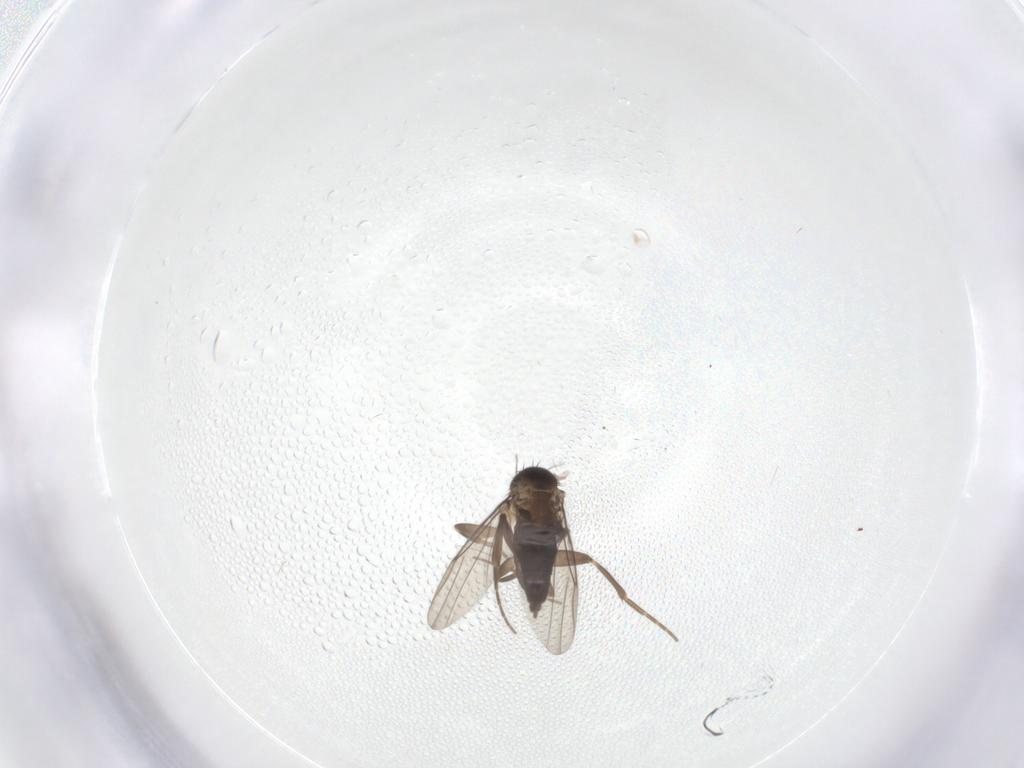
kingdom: Animalia
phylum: Arthropoda
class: Insecta
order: Diptera
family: Phoridae
